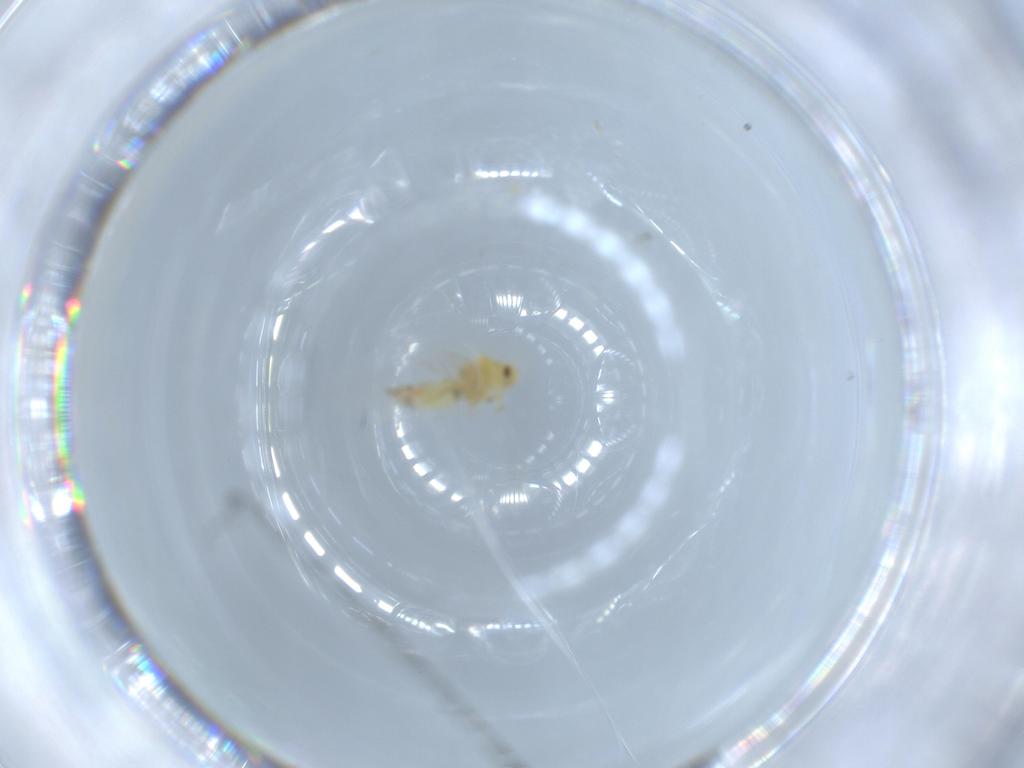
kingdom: Animalia
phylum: Arthropoda
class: Insecta
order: Hemiptera
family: Aleyrodidae
